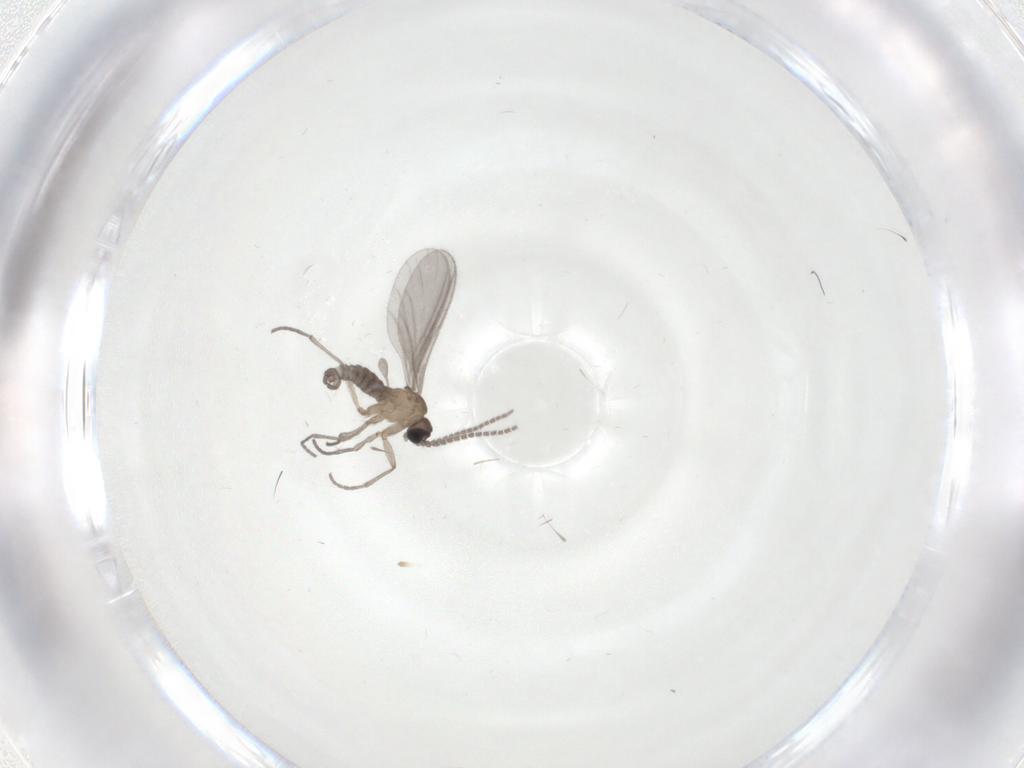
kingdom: Animalia
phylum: Arthropoda
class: Insecta
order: Diptera
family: Sciaridae
